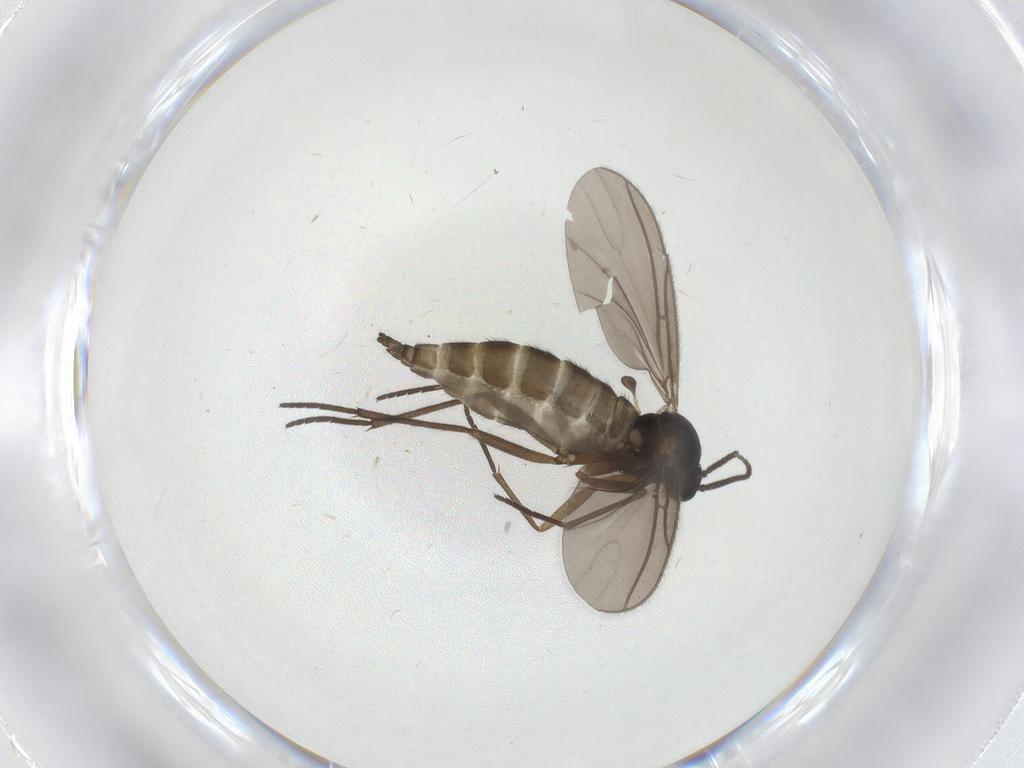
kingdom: Animalia
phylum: Arthropoda
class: Insecta
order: Diptera
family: Sciaridae
